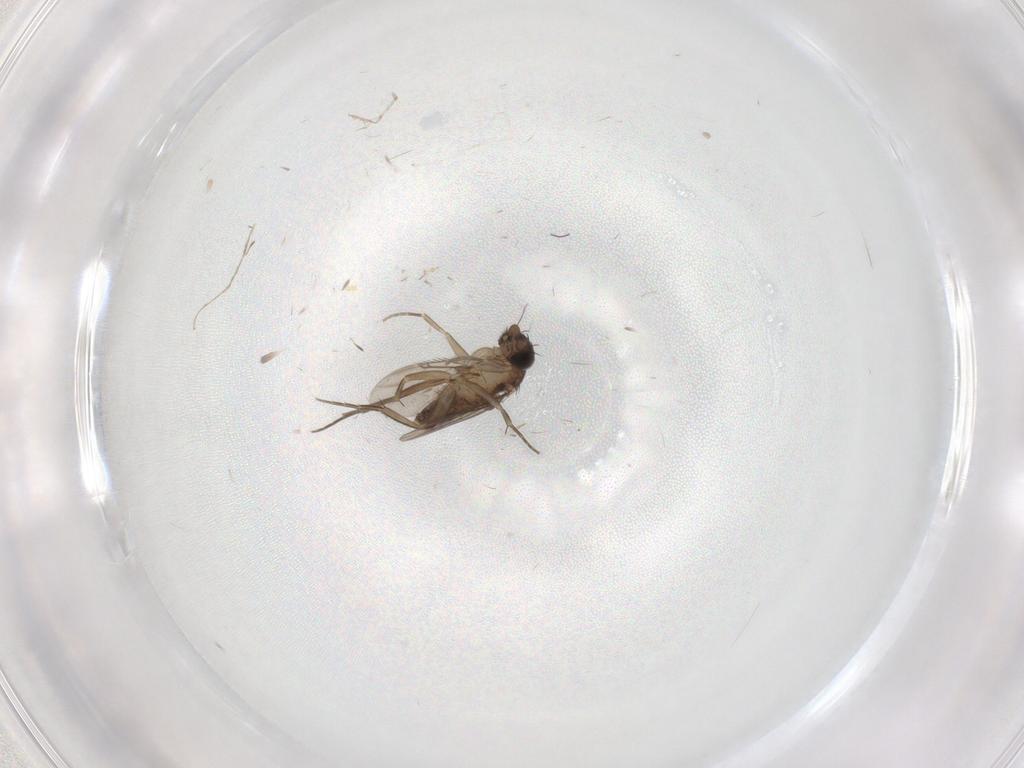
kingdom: Animalia
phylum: Arthropoda
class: Insecta
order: Diptera
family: Phoridae
